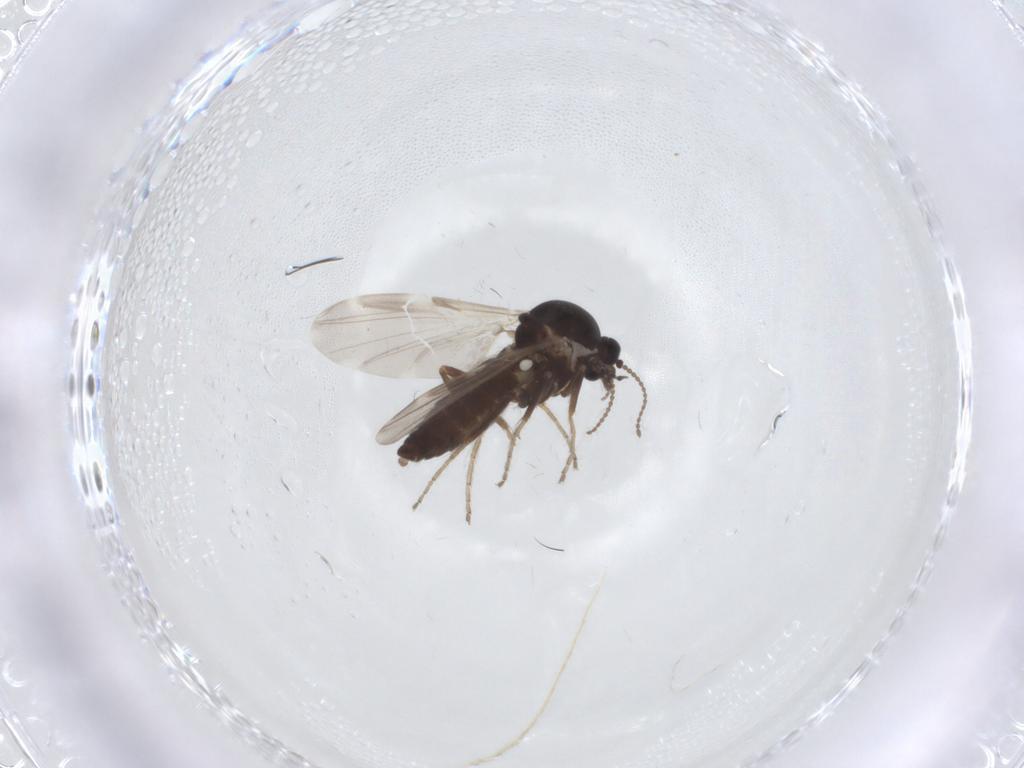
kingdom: Animalia
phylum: Arthropoda
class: Insecta
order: Diptera
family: Ceratopogonidae
